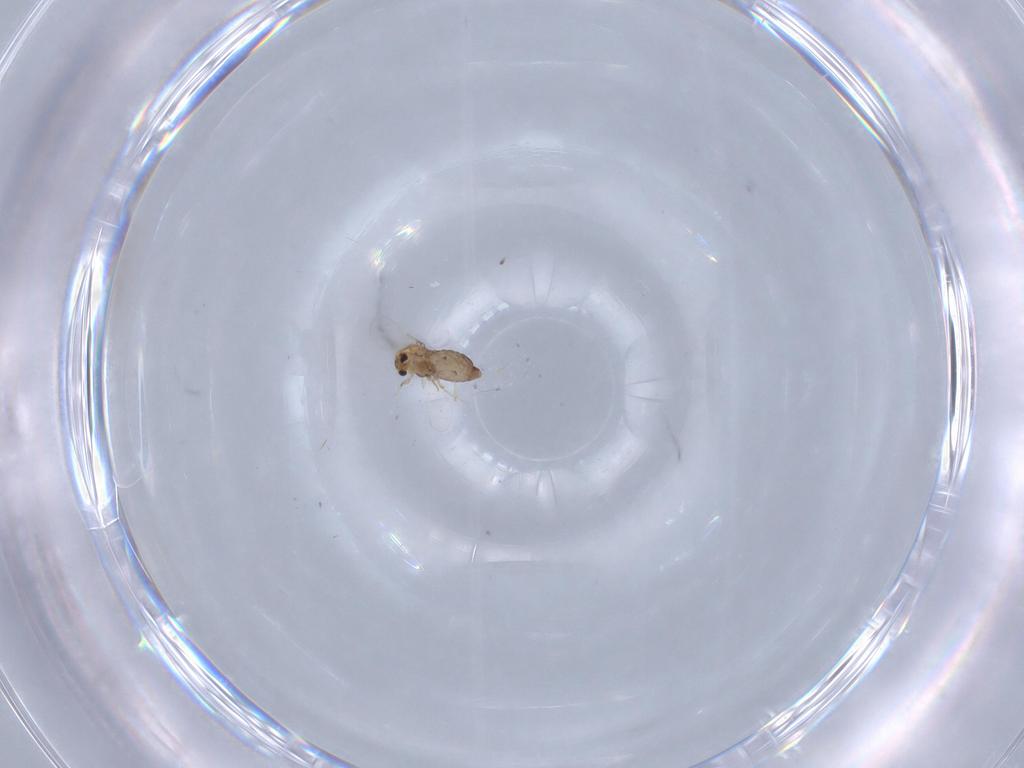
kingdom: Animalia
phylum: Arthropoda
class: Insecta
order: Diptera
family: Chironomidae
